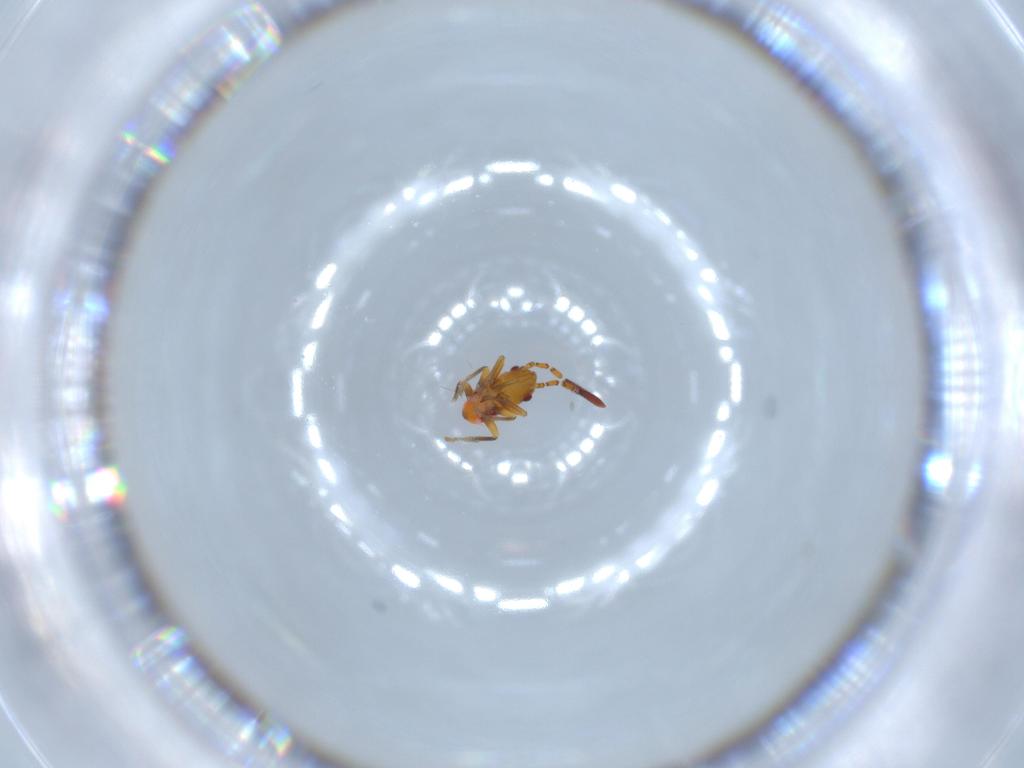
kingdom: Animalia
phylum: Arthropoda
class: Insecta
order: Hemiptera
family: Rhyparochromidae
